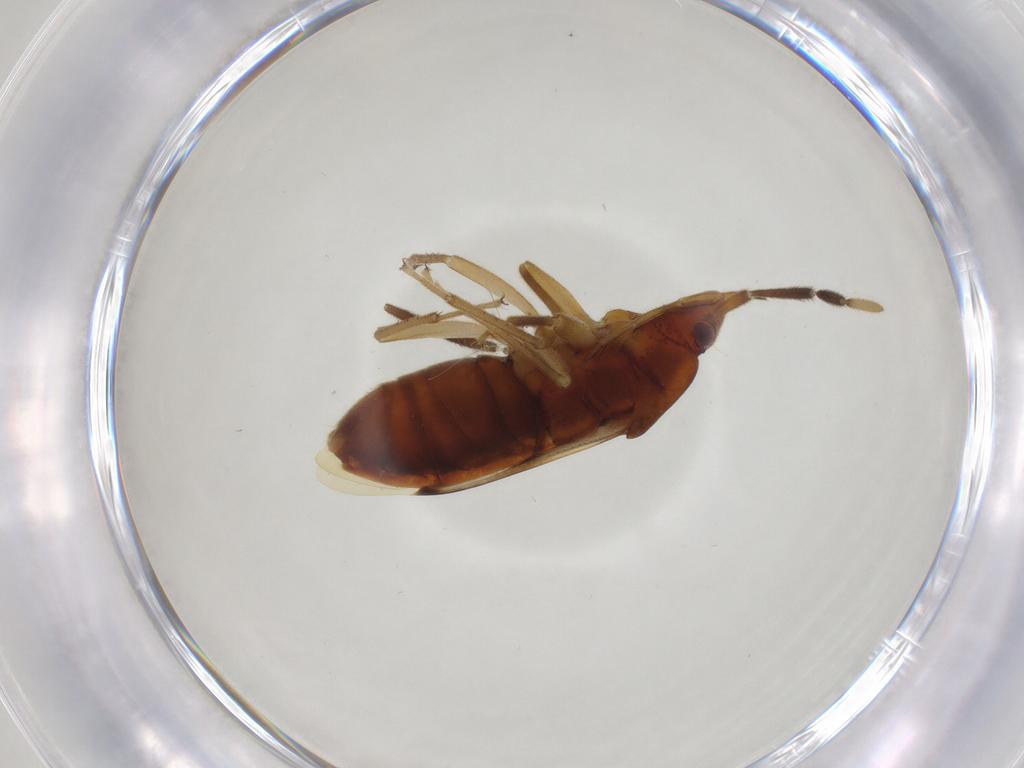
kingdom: Animalia
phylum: Arthropoda
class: Insecta
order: Hemiptera
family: Rhyparochromidae
